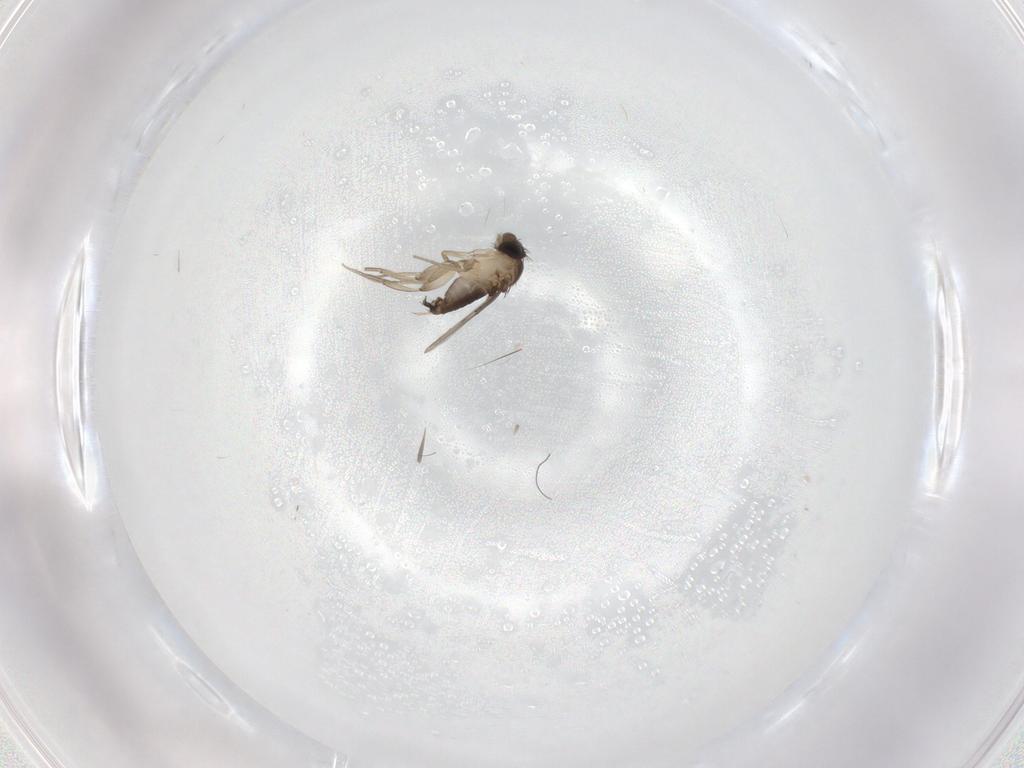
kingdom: Animalia
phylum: Arthropoda
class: Insecta
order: Diptera
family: Phoridae
